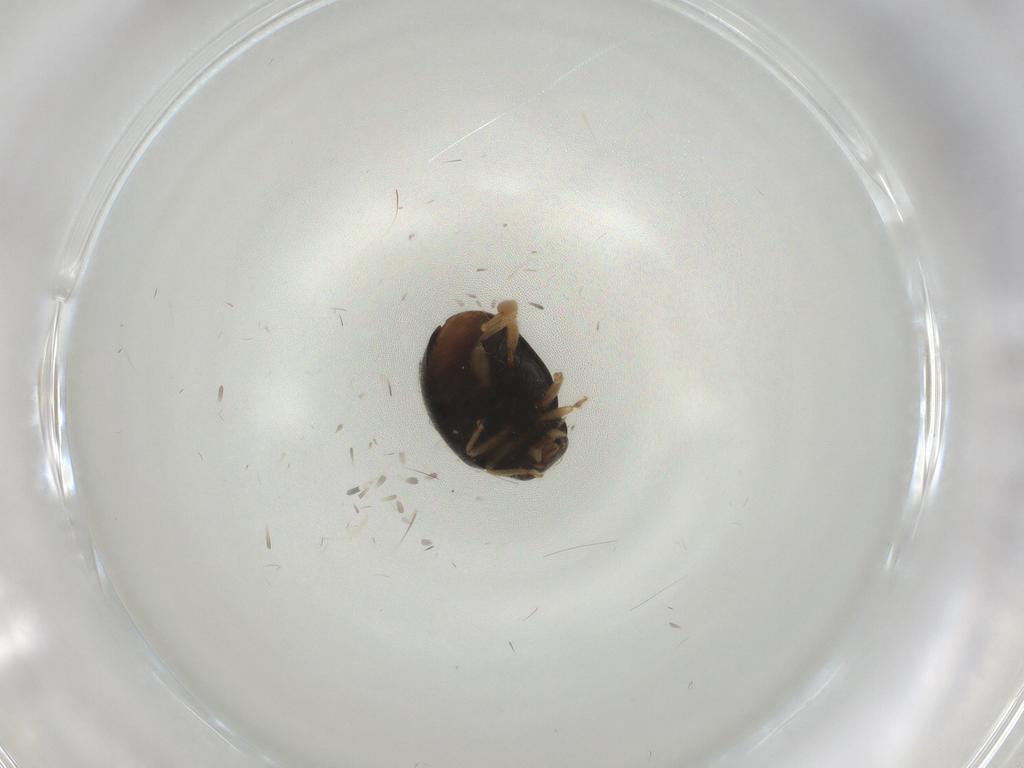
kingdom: Animalia
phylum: Arthropoda
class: Insecta
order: Coleoptera
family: Coccinellidae
